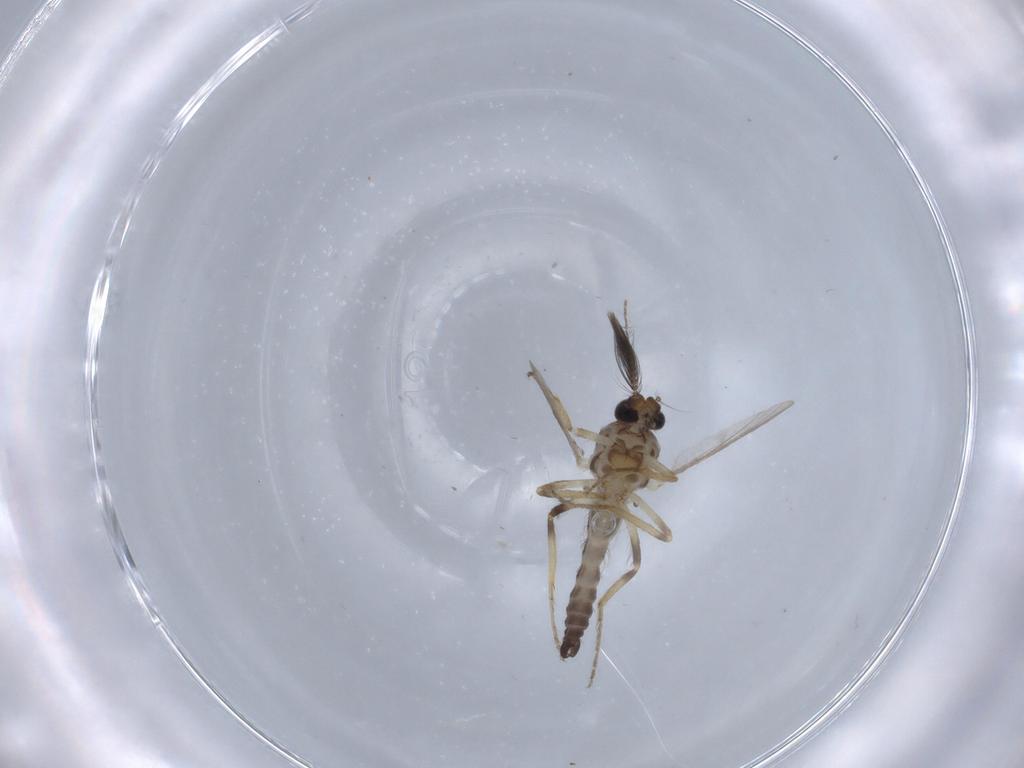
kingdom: Animalia
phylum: Arthropoda
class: Insecta
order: Diptera
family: Ceratopogonidae
